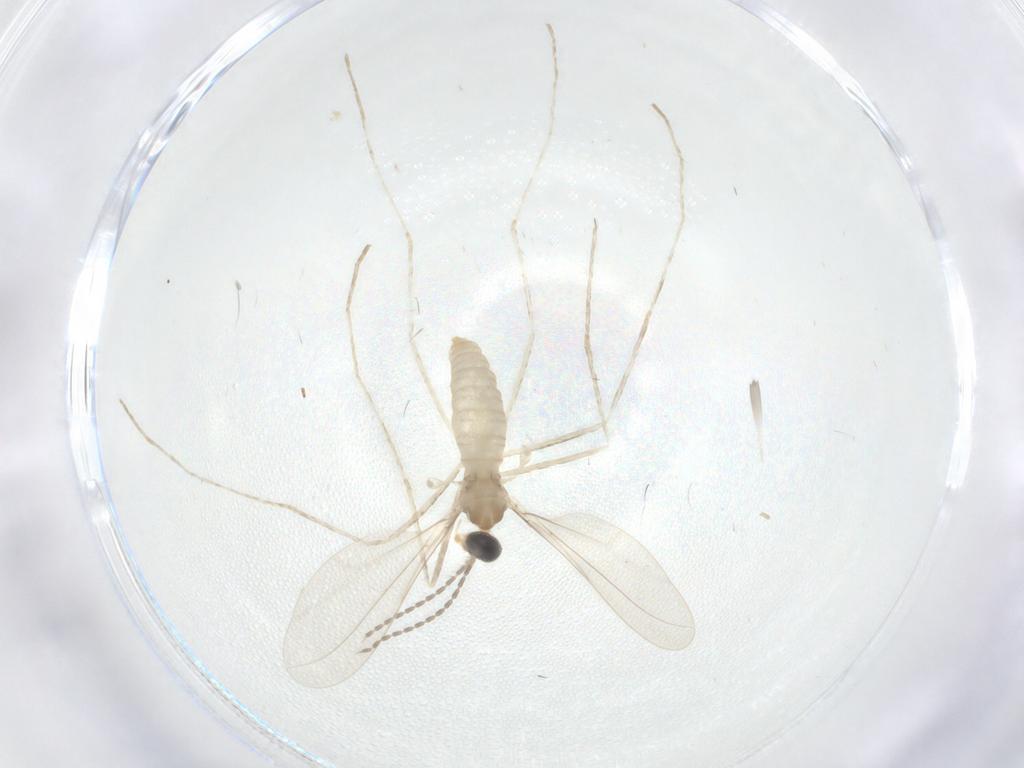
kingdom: Animalia
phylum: Arthropoda
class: Insecta
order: Diptera
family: Cecidomyiidae
